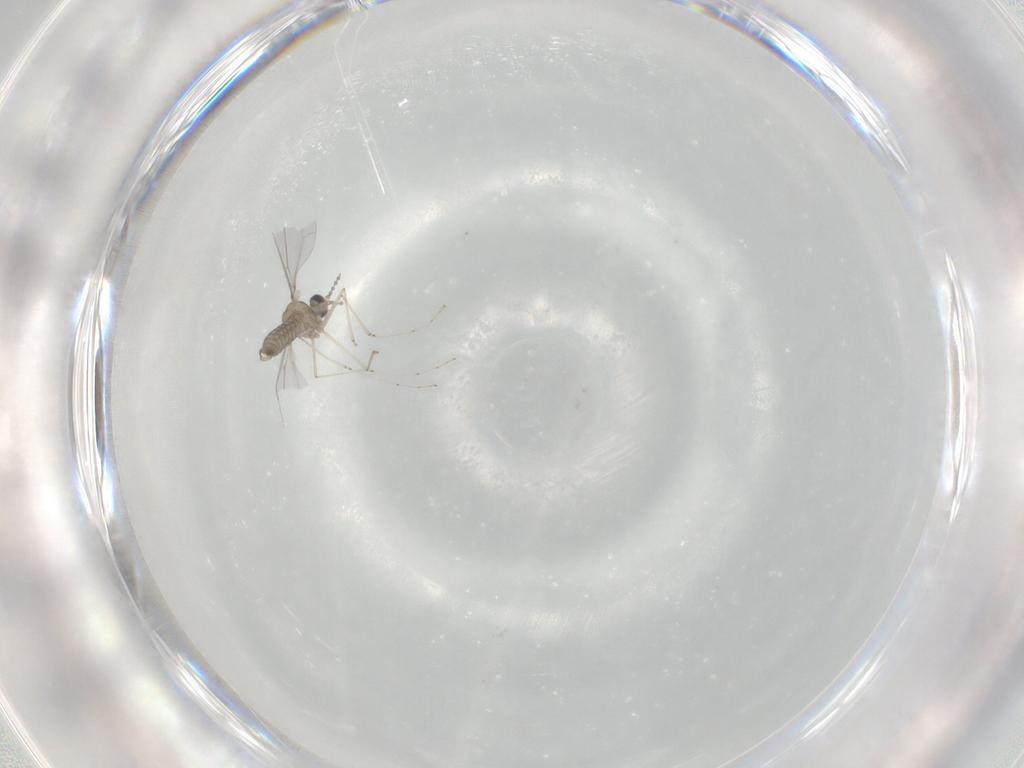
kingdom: Animalia
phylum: Arthropoda
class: Insecta
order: Diptera
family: Cecidomyiidae
